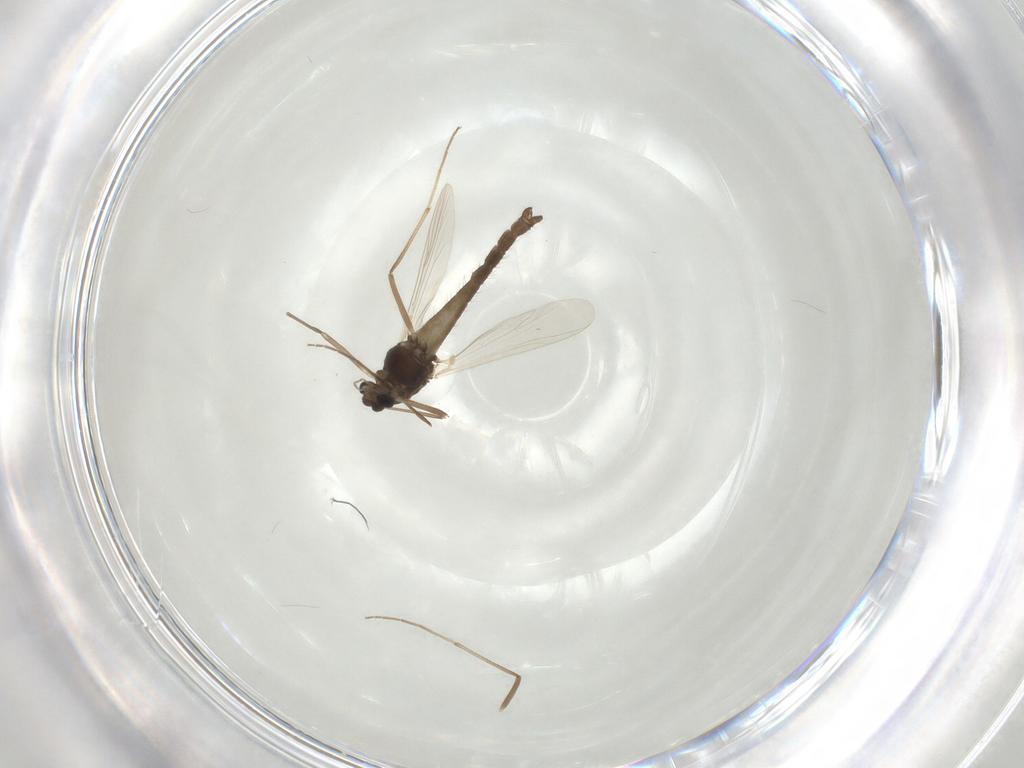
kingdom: Animalia
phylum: Arthropoda
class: Insecta
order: Diptera
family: Chironomidae
